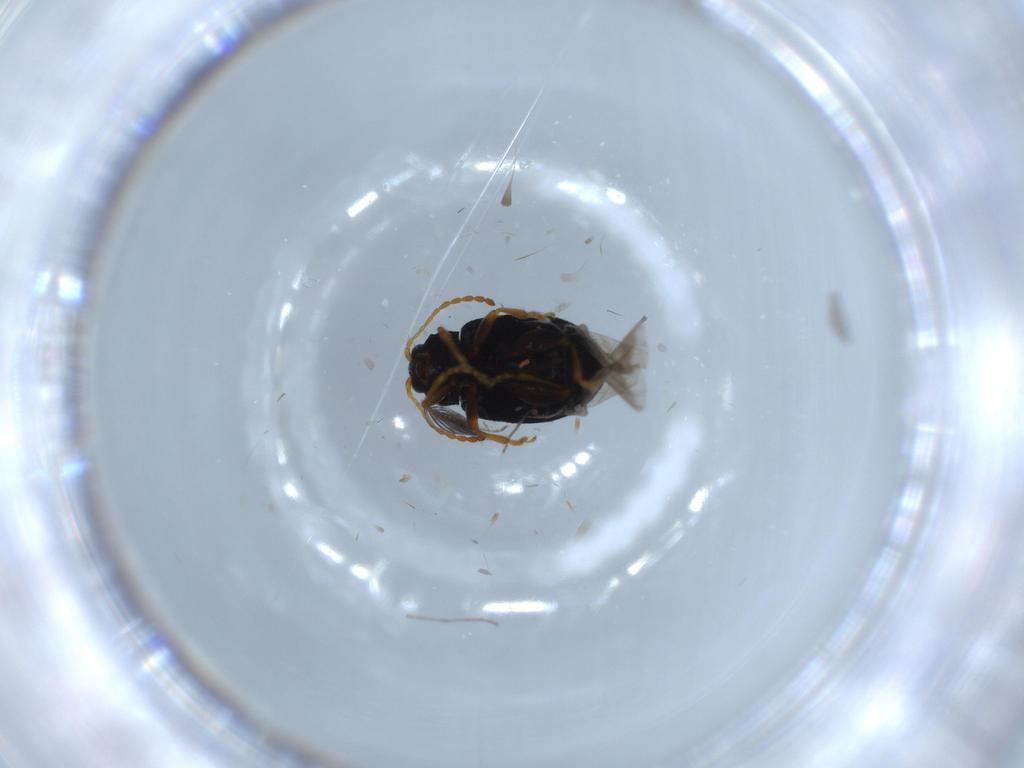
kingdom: Animalia
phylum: Arthropoda
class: Insecta
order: Coleoptera
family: Chrysomelidae
